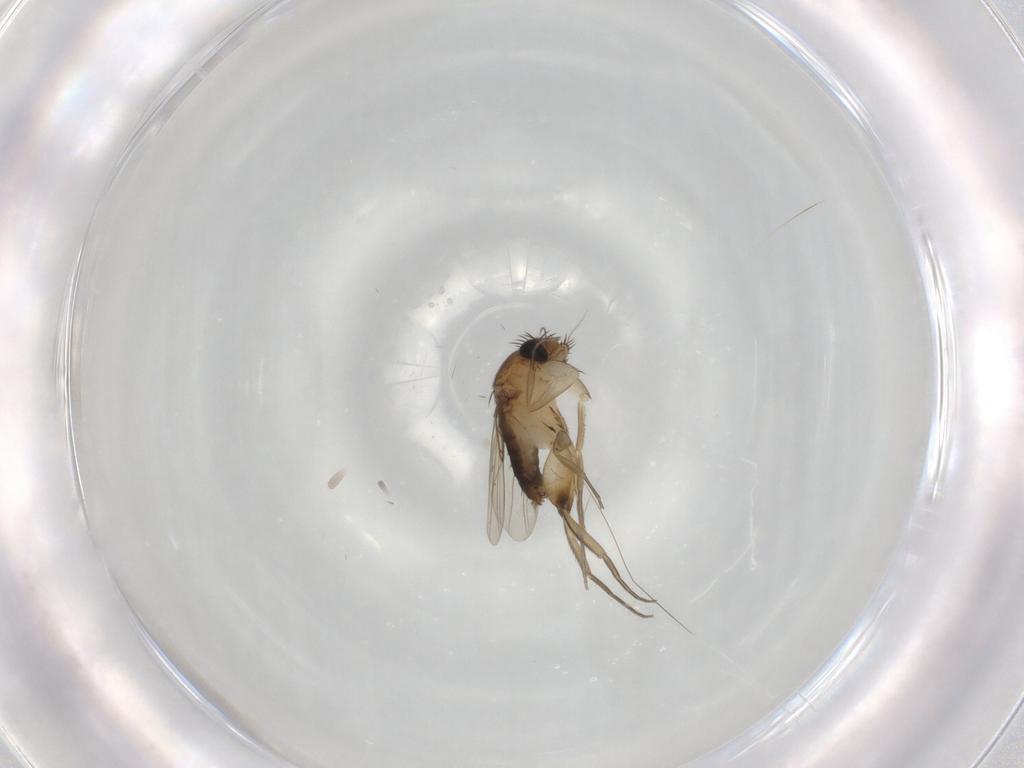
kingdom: Animalia
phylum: Arthropoda
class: Insecta
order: Diptera
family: Phoridae
